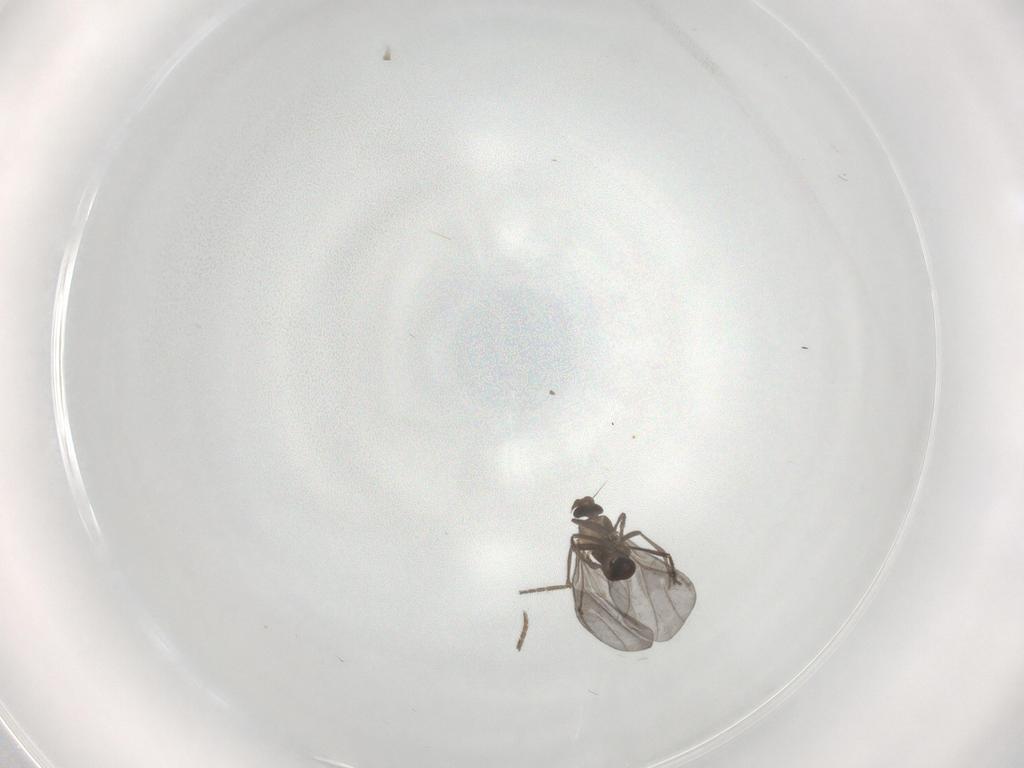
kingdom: Animalia
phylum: Arthropoda
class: Insecta
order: Diptera
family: Phoridae
